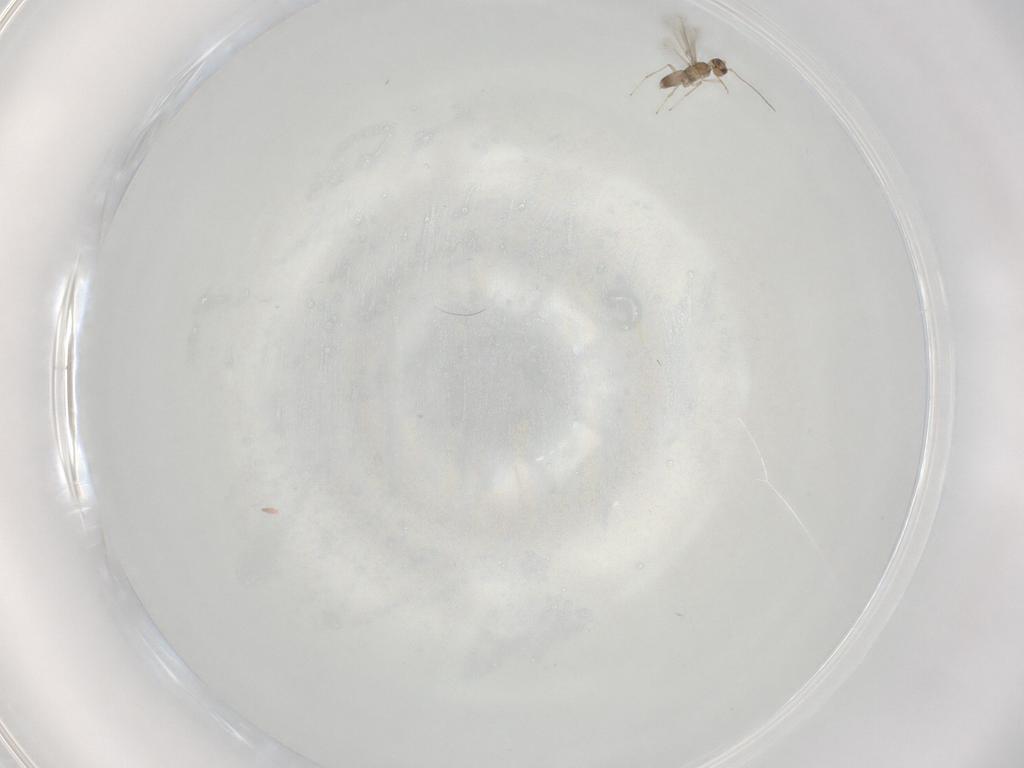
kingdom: Animalia
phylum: Arthropoda
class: Insecta
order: Hymenoptera
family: Mymaridae
